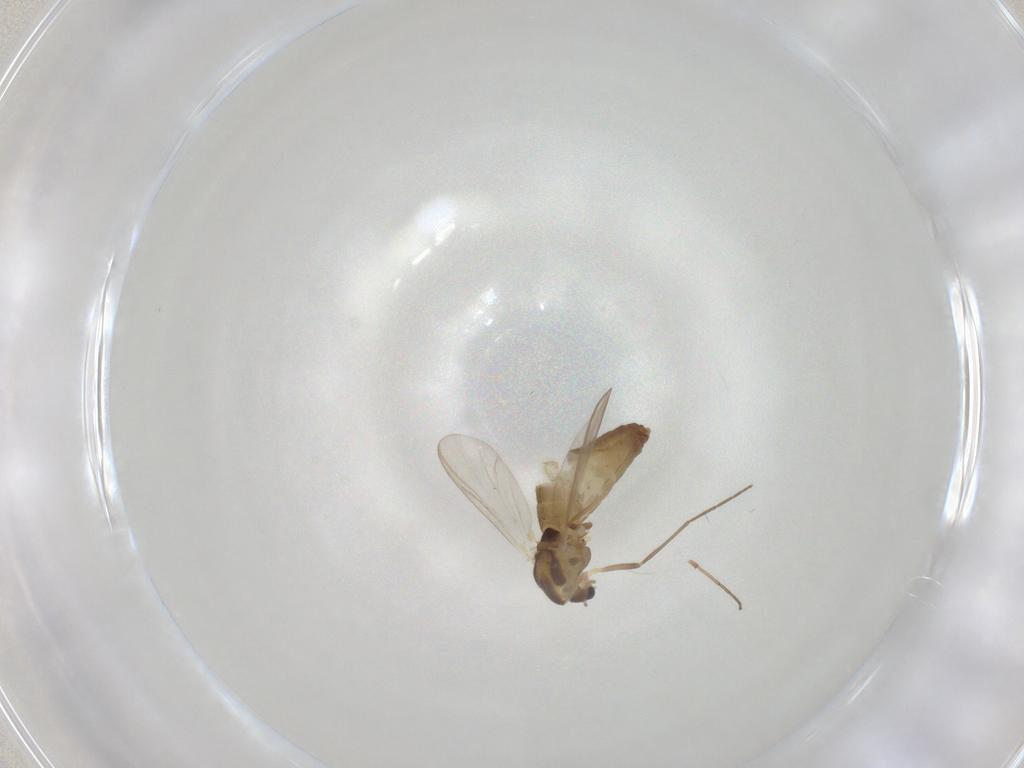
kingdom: Animalia
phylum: Arthropoda
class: Insecta
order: Diptera
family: Chironomidae
